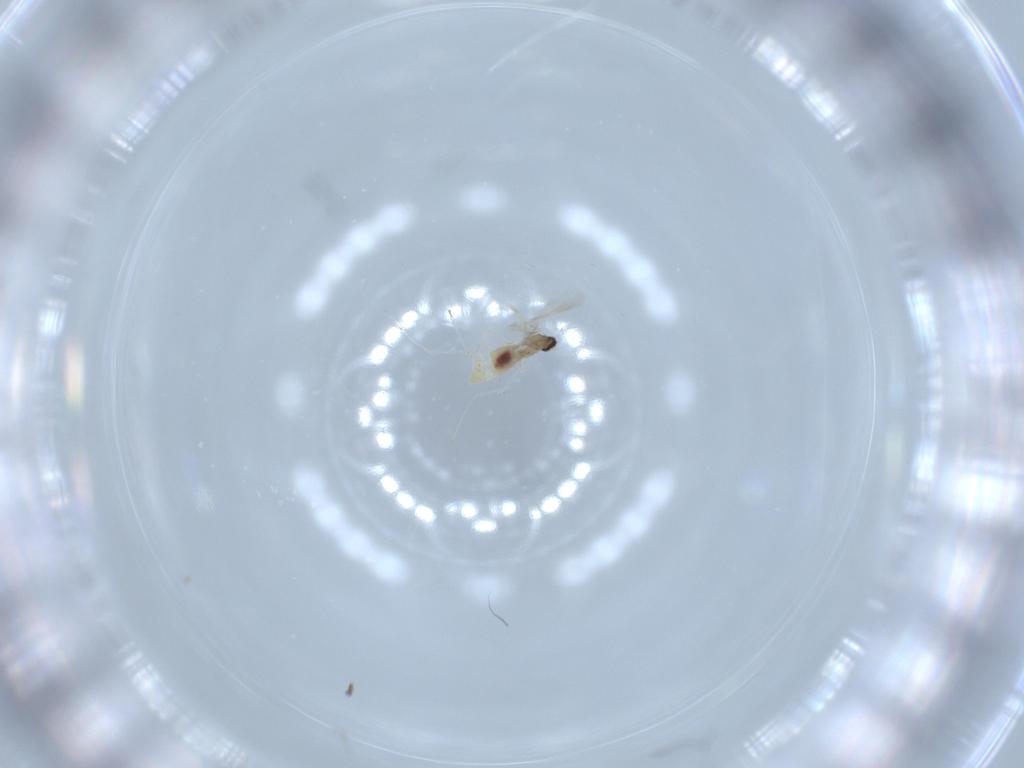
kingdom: Animalia
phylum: Arthropoda
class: Insecta
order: Diptera
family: Cecidomyiidae
